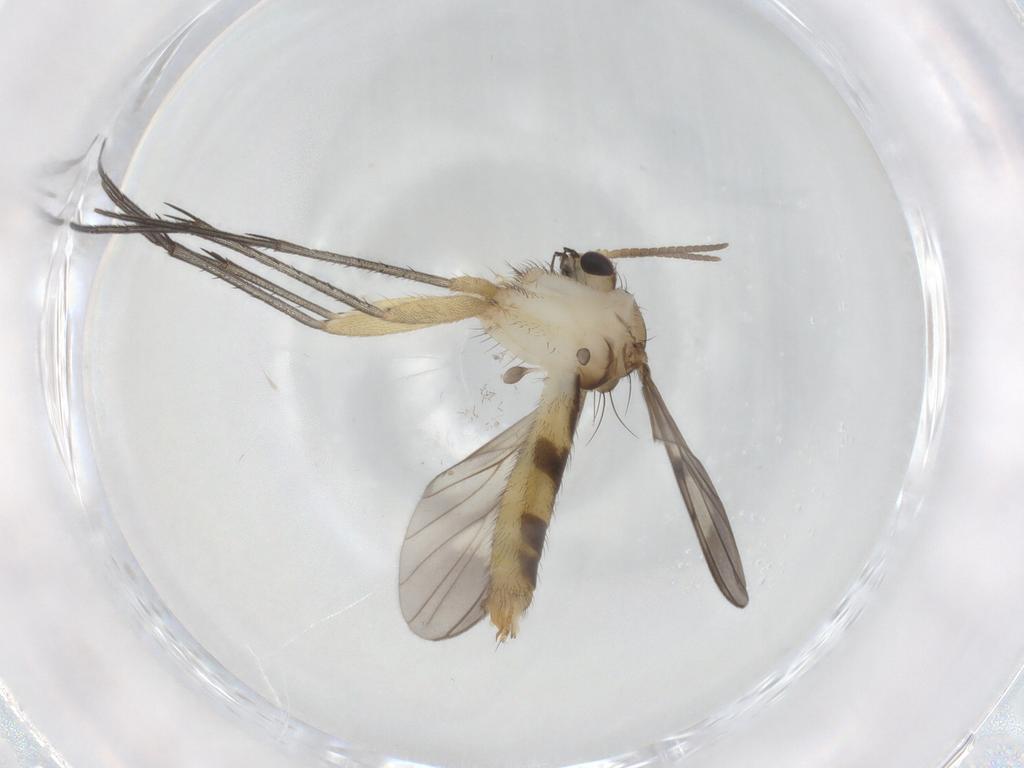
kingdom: Animalia
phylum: Arthropoda
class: Insecta
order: Diptera
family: Mycetophilidae
